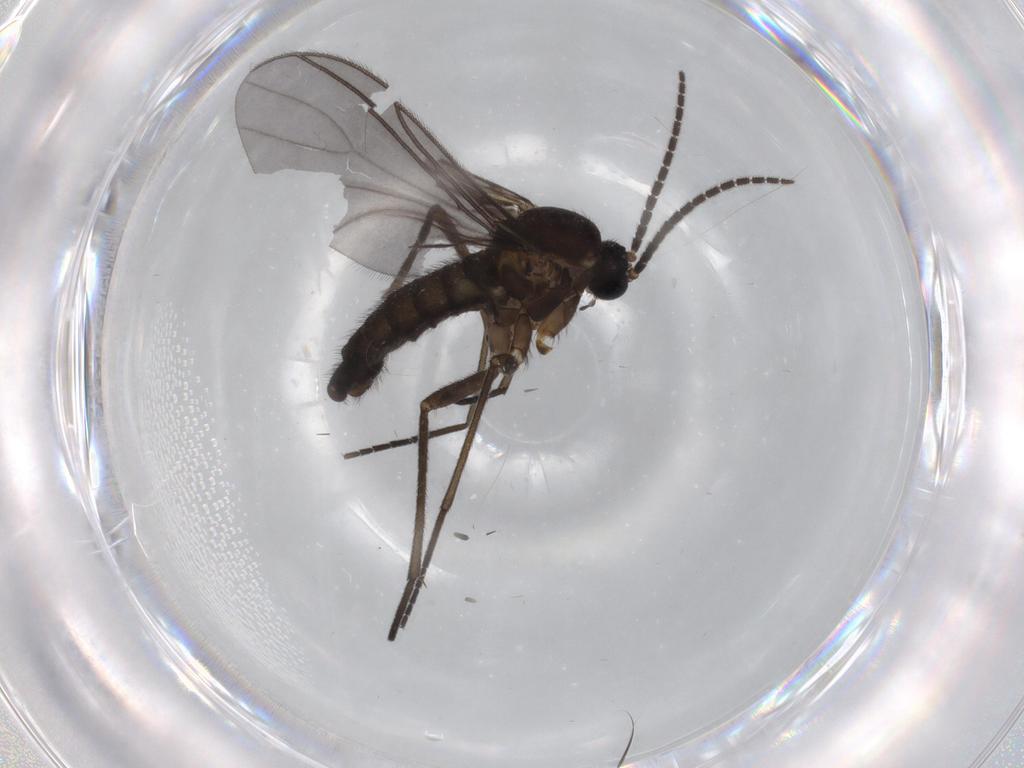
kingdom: Animalia
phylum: Arthropoda
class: Insecta
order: Diptera
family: Sciaridae
